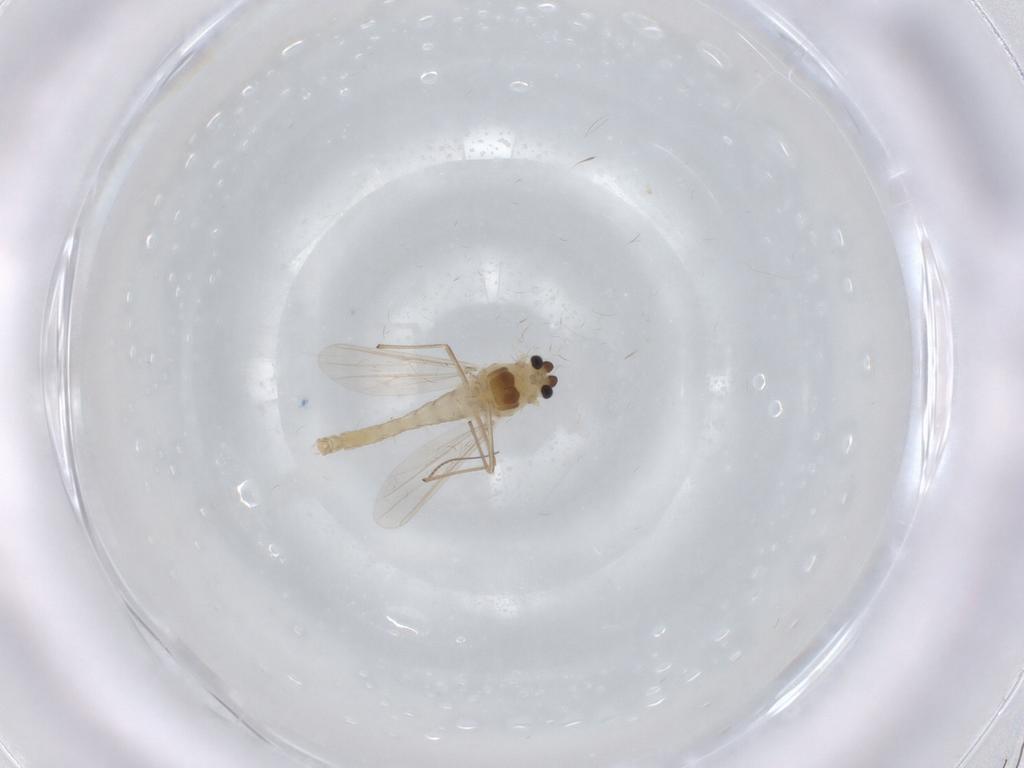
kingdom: Animalia
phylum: Arthropoda
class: Insecta
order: Diptera
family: Chironomidae
